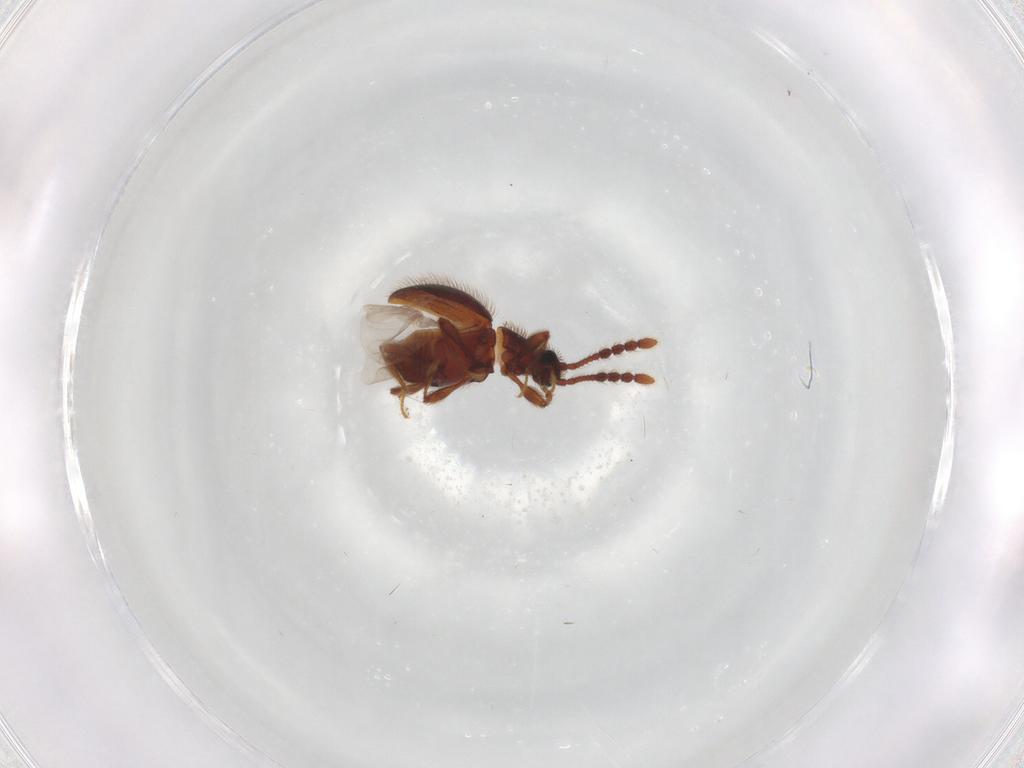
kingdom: Animalia
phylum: Arthropoda
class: Insecta
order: Coleoptera
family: Staphylinidae
